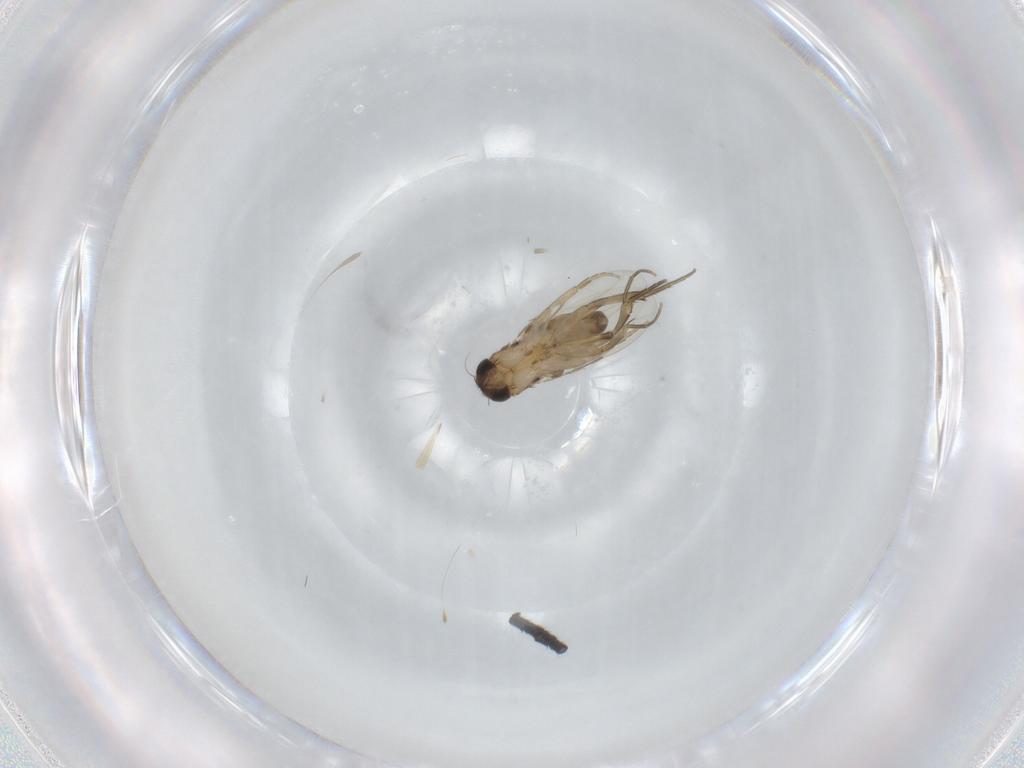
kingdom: Animalia
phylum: Arthropoda
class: Insecta
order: Diptera
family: Phoridae
